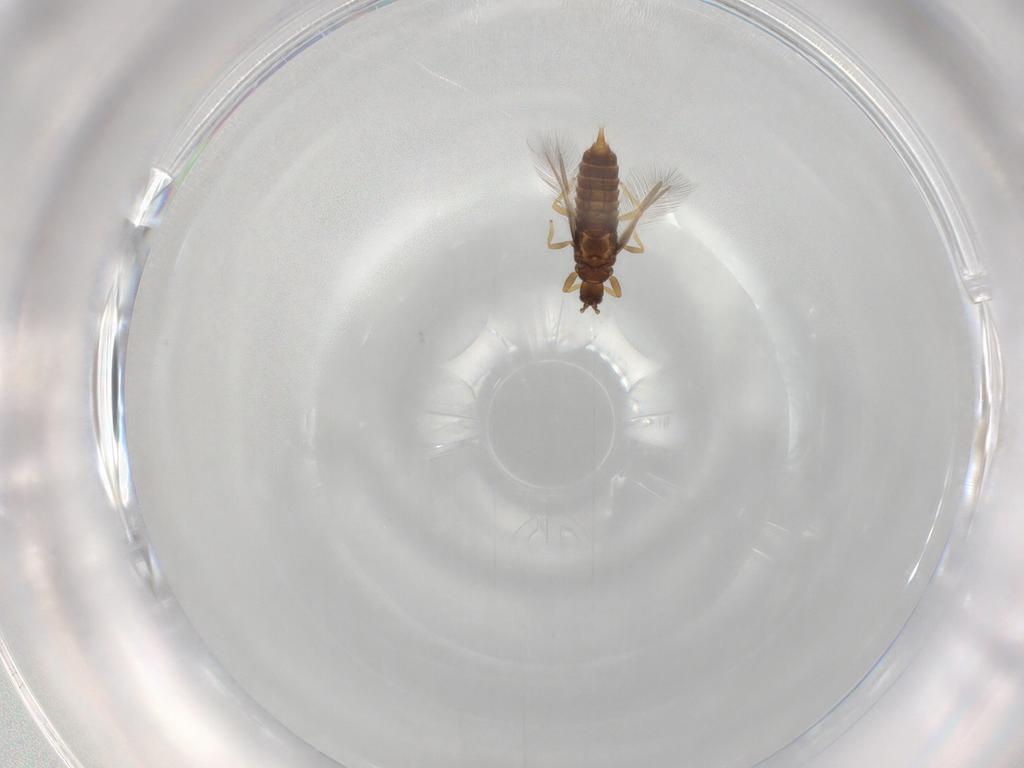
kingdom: Animalia
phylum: Arthropoda
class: Insecta
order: Thysanoptera
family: Phlaeothripidae
